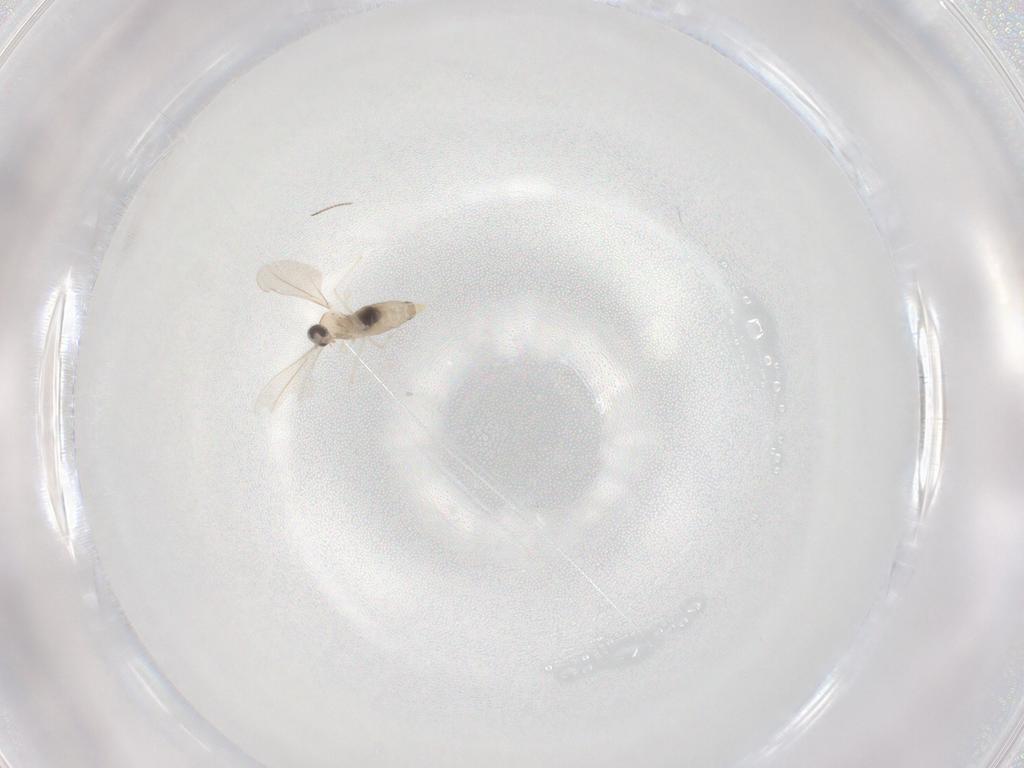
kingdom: Animalia
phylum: Arthropoda
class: Insecta
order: Diptera
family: Cecidomyiidae
